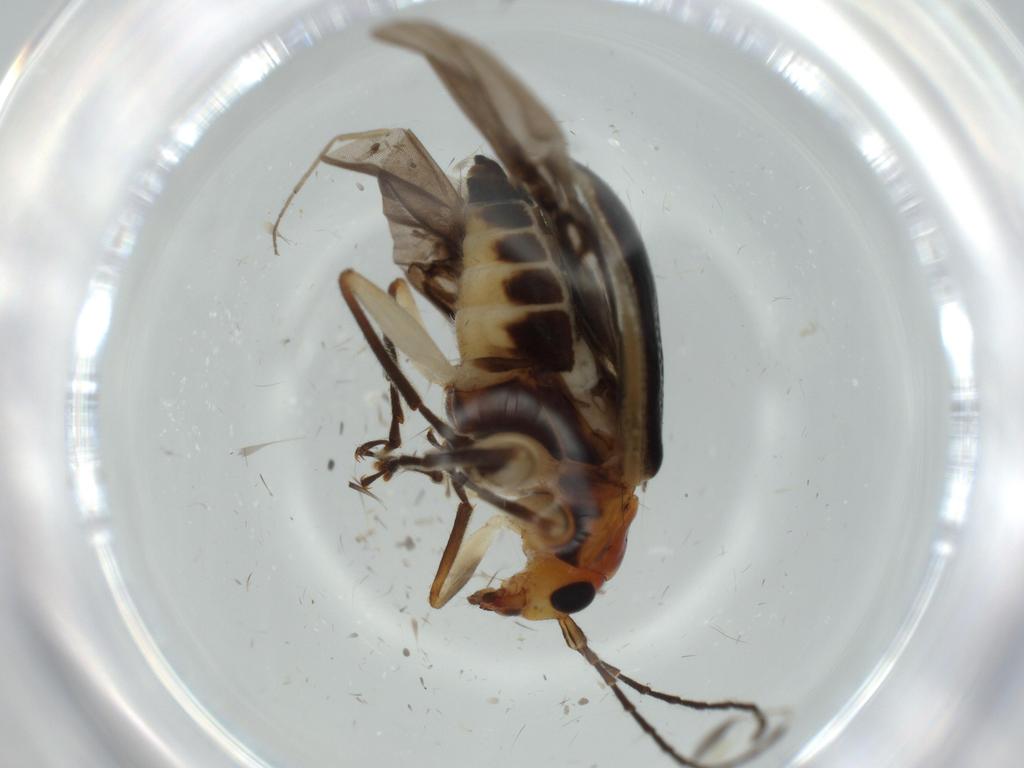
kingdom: Animalia
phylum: Arthropoda
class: Insecta
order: Coleoptera
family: Chrysomelidae
